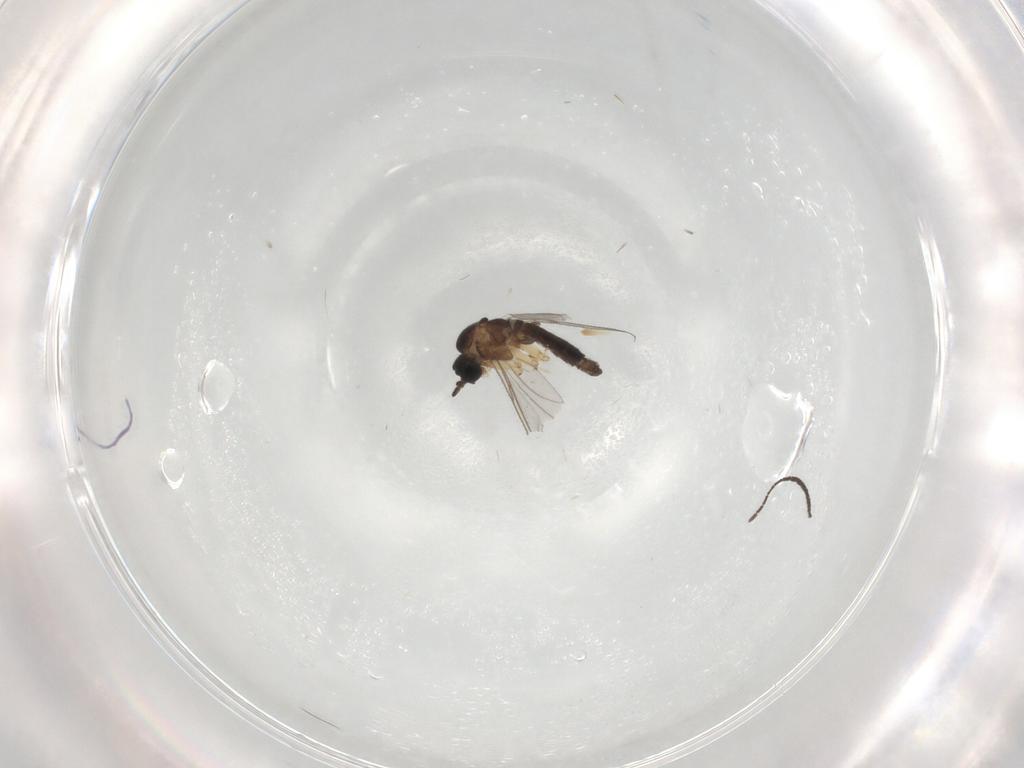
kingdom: Animalia
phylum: Arthropoda
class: Insecta
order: Diptera
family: Sciaridae
